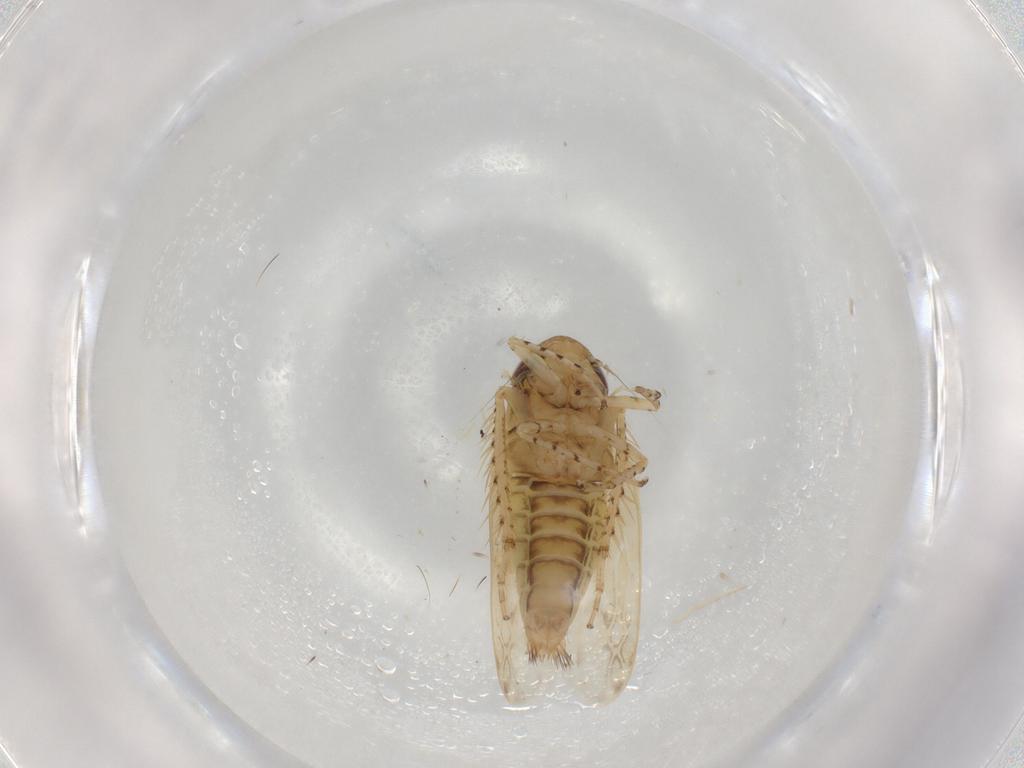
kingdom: Animalia
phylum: Arthropoda
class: Insecta
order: Hemiptera
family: Cicadellidae
